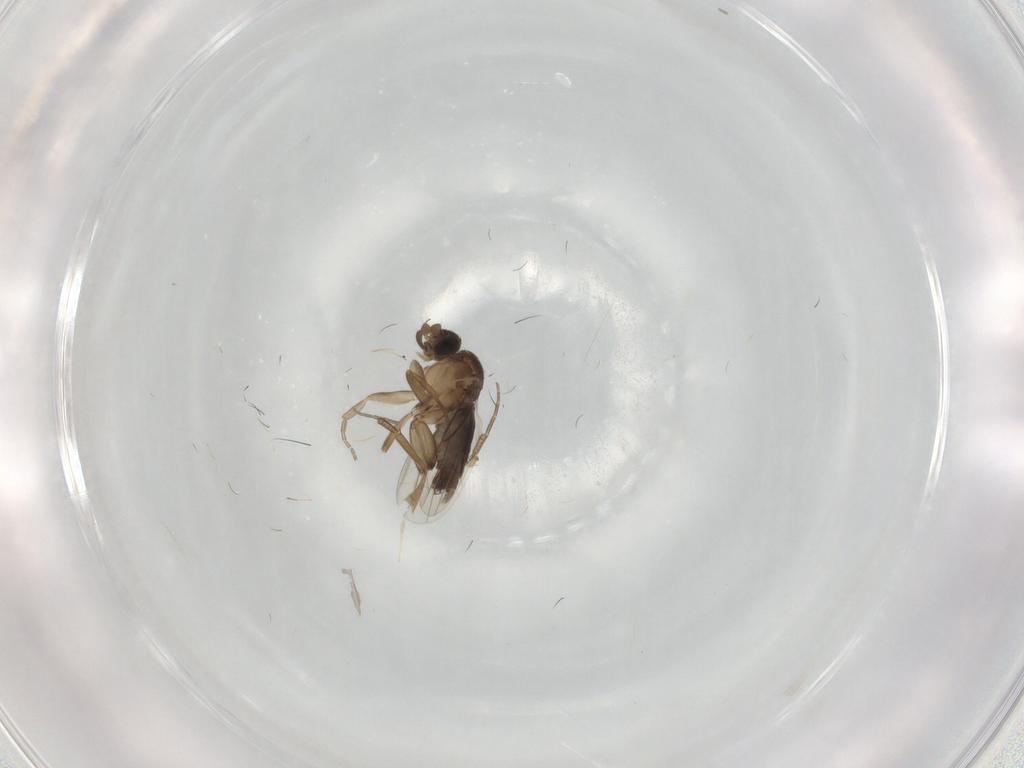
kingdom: Animalia
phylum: Arthropoda
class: Insecta
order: Diptera
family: Phoridae
